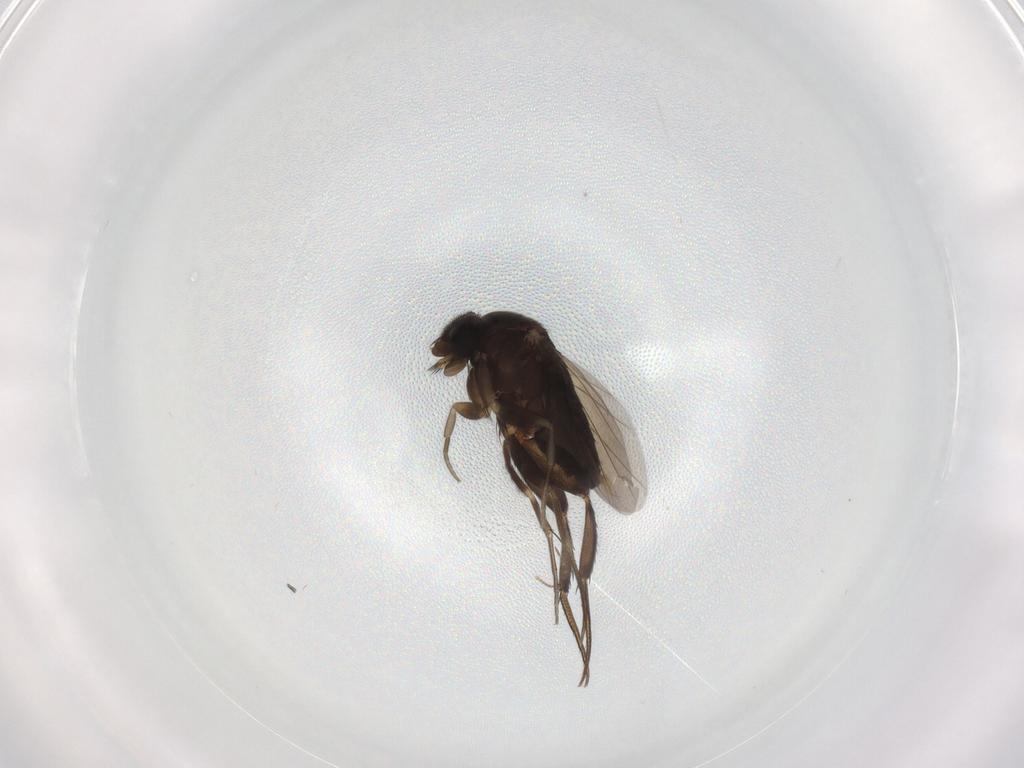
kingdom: Animalia
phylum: Arthropoda
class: Insecta
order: Diptera
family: Phoridae
